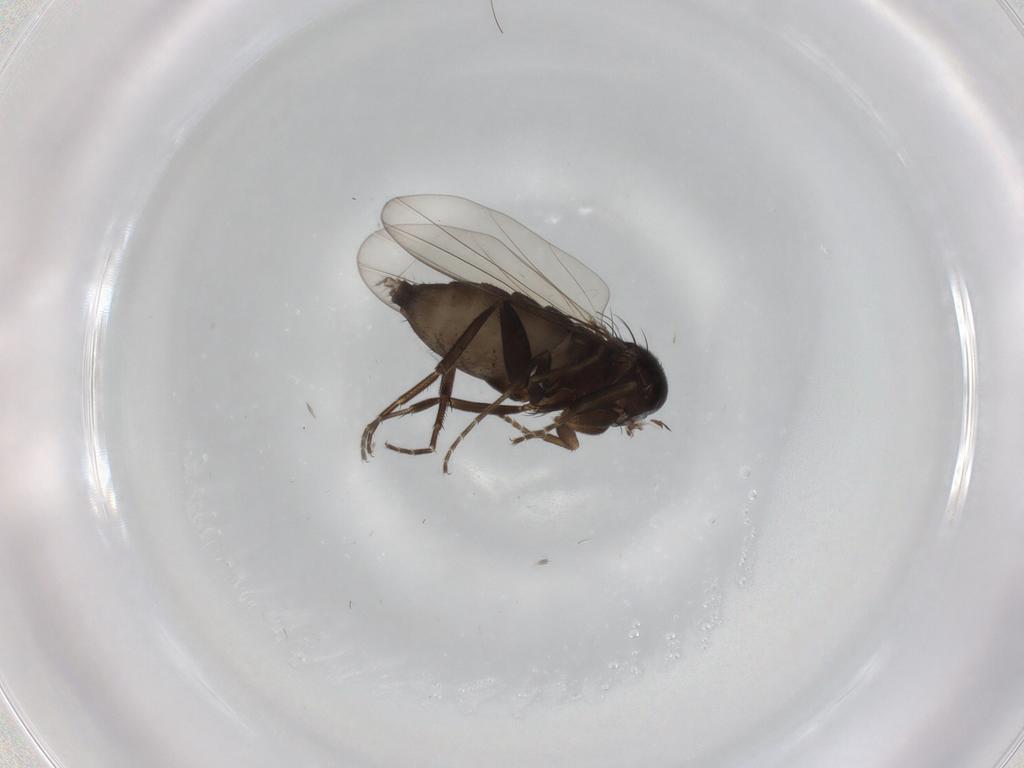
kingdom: Animalia
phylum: Arthropoda
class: Insecta
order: Diptera
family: Phoridae
